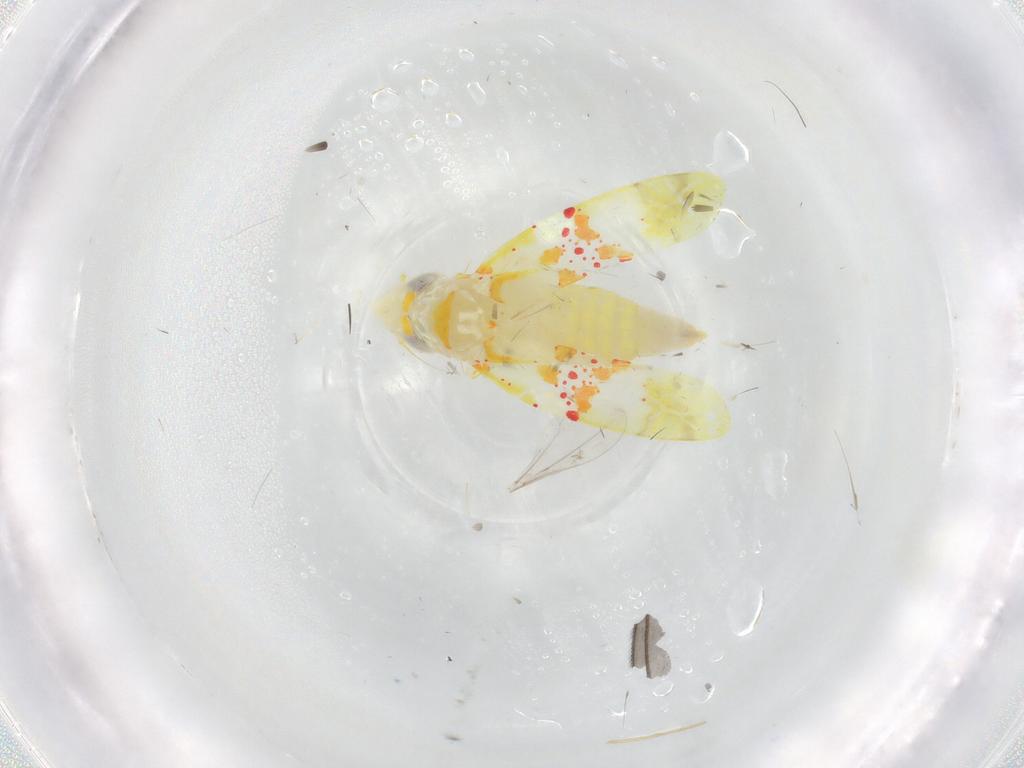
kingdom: Animalia
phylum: Arthropoda
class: Insecta
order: Hemiptera
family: Cicadellidae
